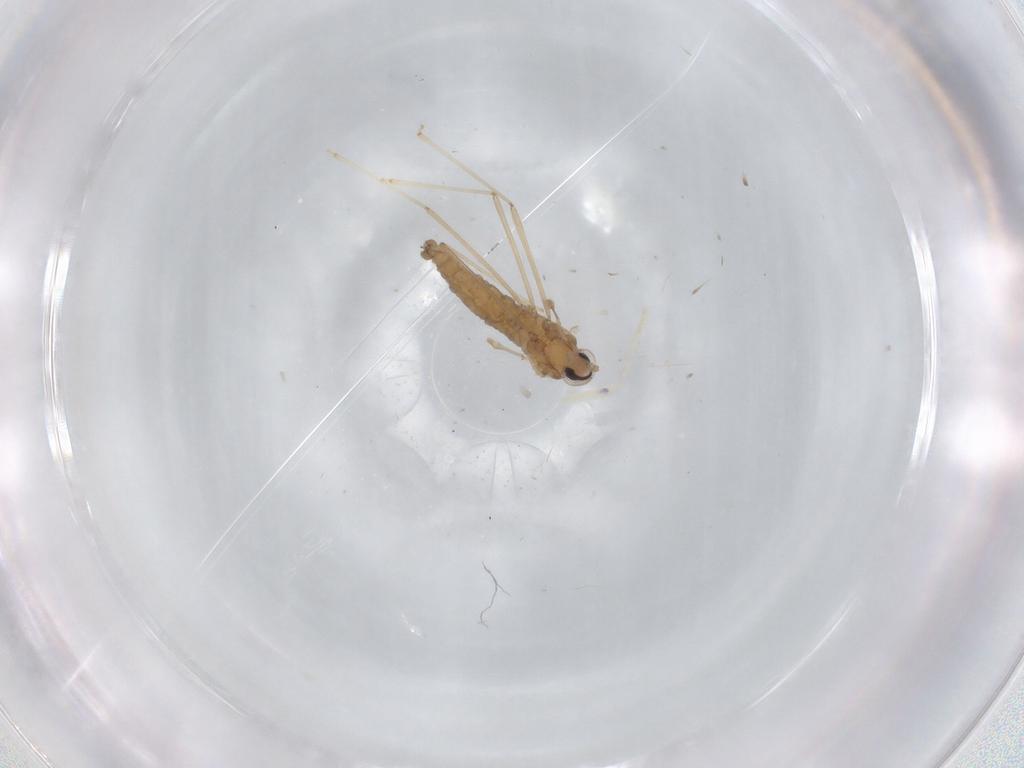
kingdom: Animalia
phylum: Arthropoda
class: Insecta
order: Diptera
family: Cecidomyiidae
